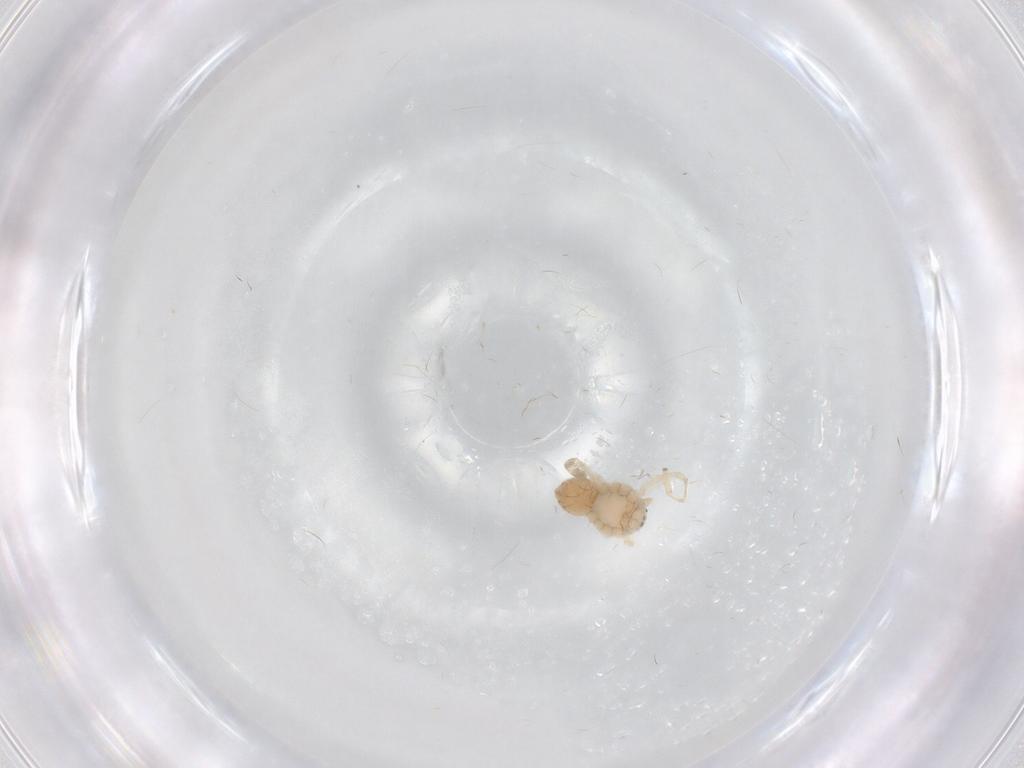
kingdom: Animalia
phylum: Arthropoda
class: Arachnida
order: Araneae
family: Philodromidae
